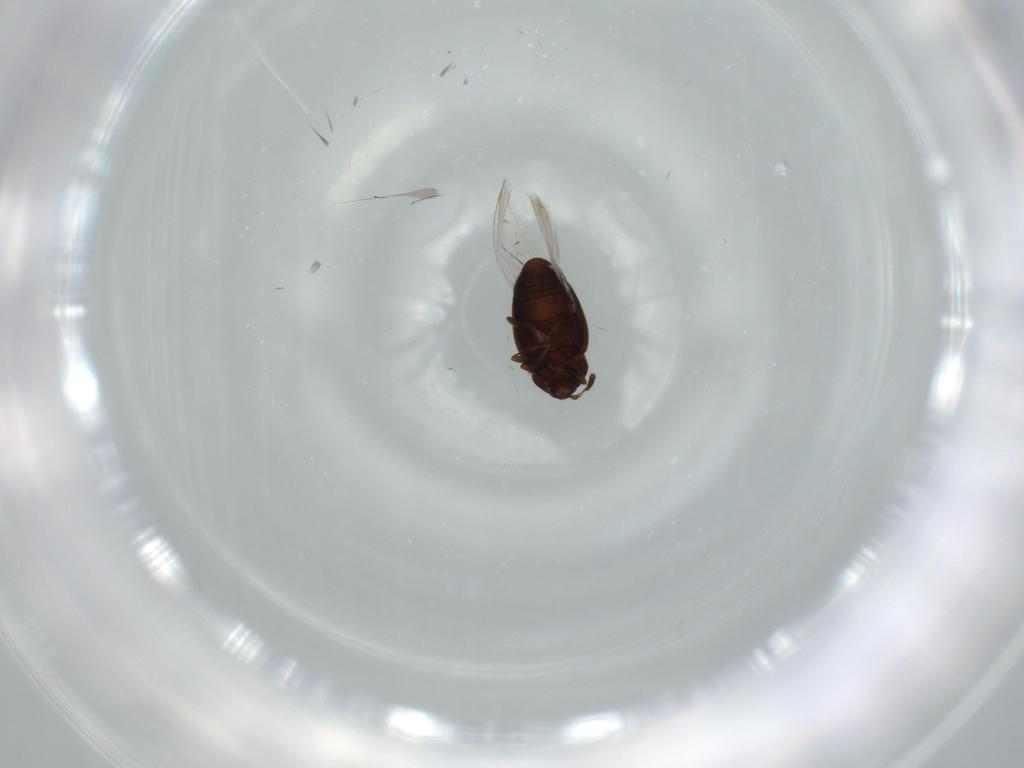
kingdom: Animalia
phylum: Arthropoda
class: Insecta
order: Coleoptera
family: Corylophidae
